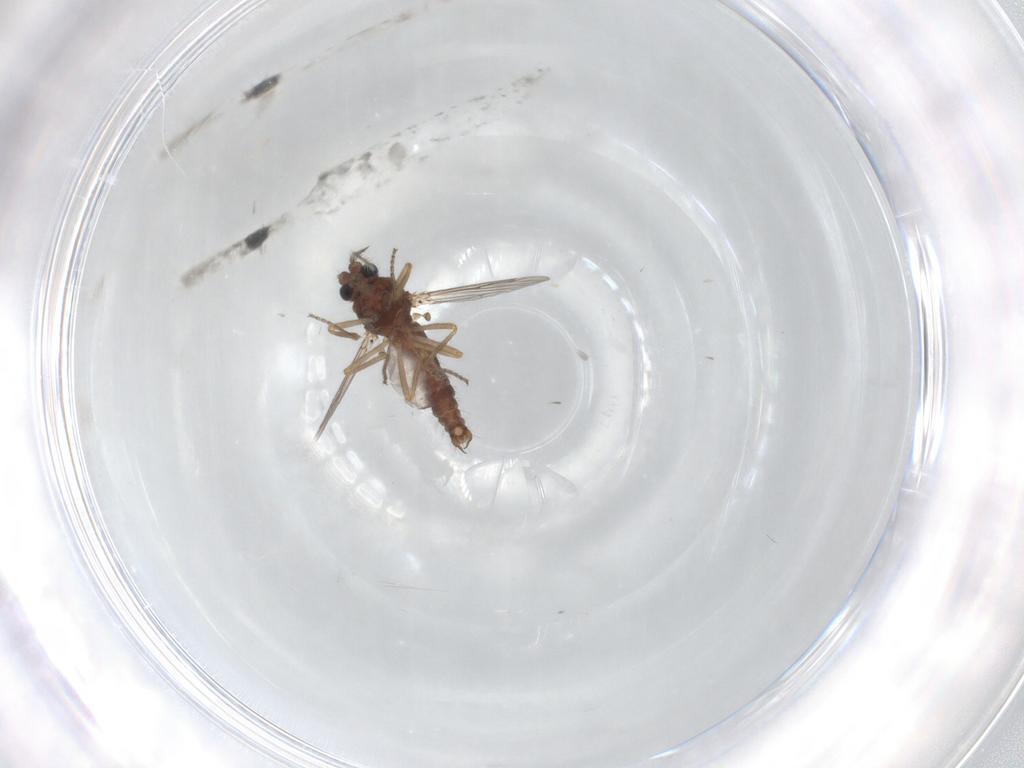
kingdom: Animalia
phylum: Arthropoda
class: Insecta
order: Diptera
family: Ceratopogonidae
